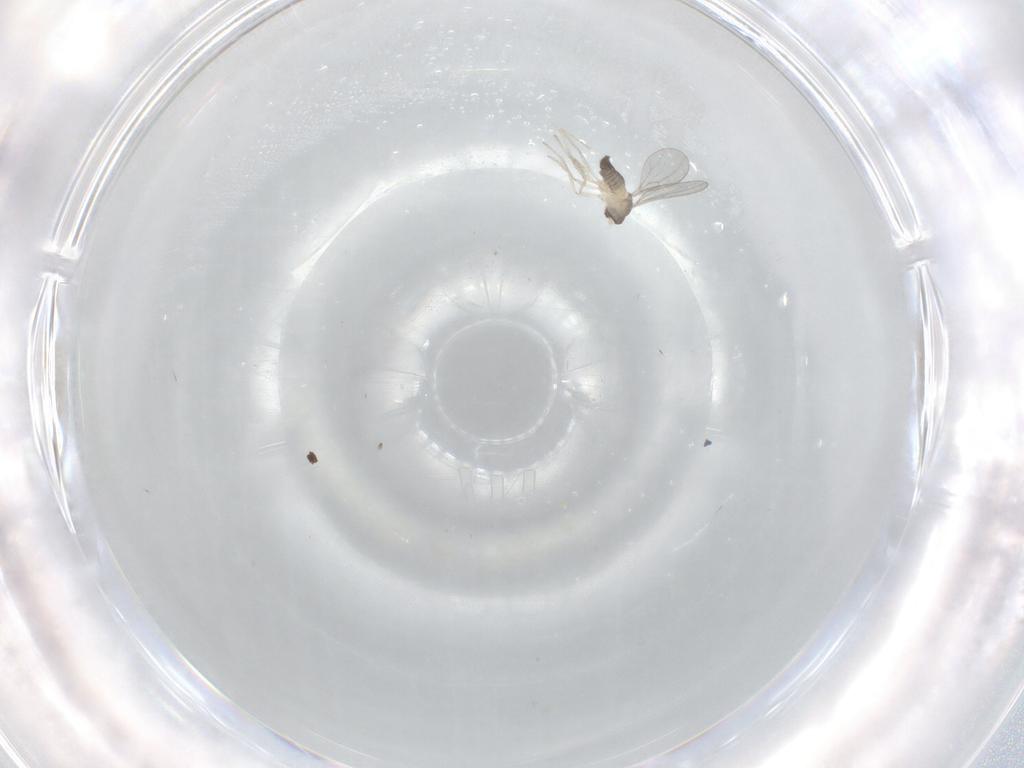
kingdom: Animalia
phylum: Arthropoda
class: Insecta
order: Diptera
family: Cecidomyiidae
